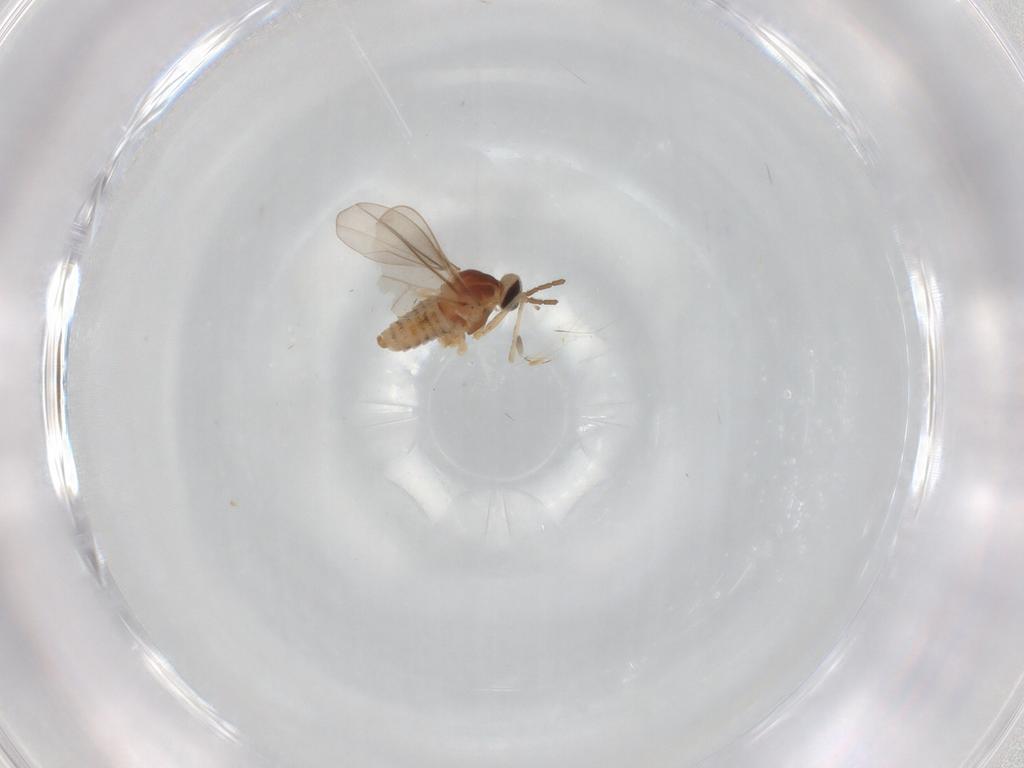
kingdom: Animalia
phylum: Arthropoda
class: Insecta
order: Diptera
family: Cecidomyiidae
